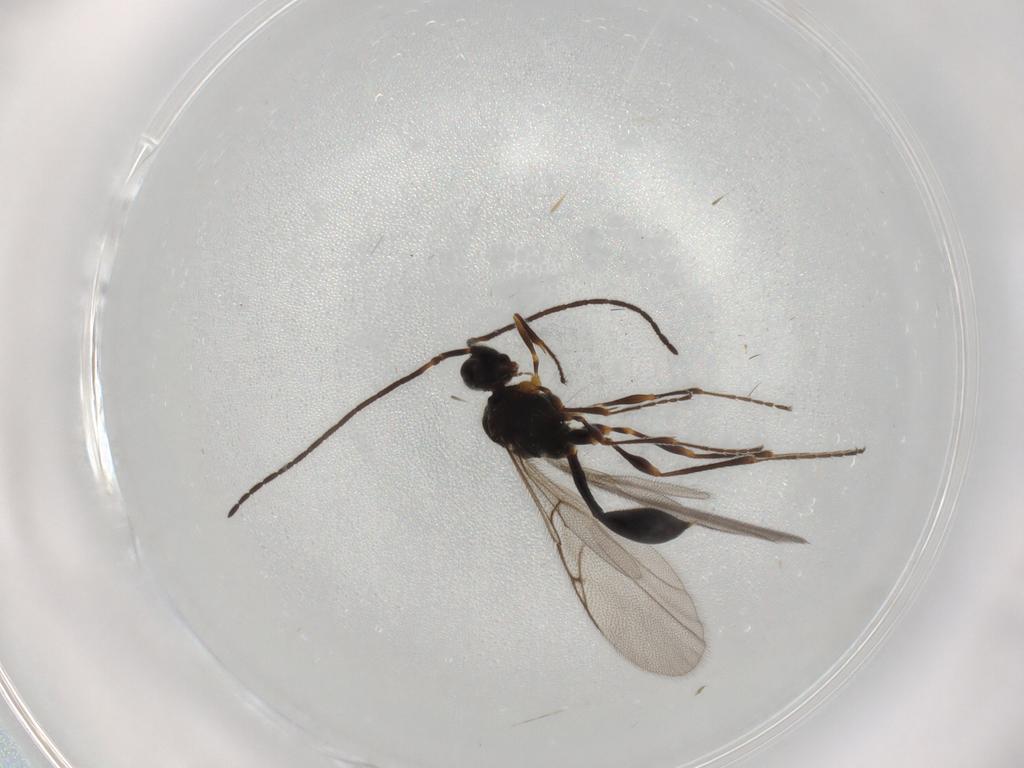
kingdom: Animalia
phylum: Arthropoda
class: Insecta
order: Hymenoptera
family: Diapriidae
